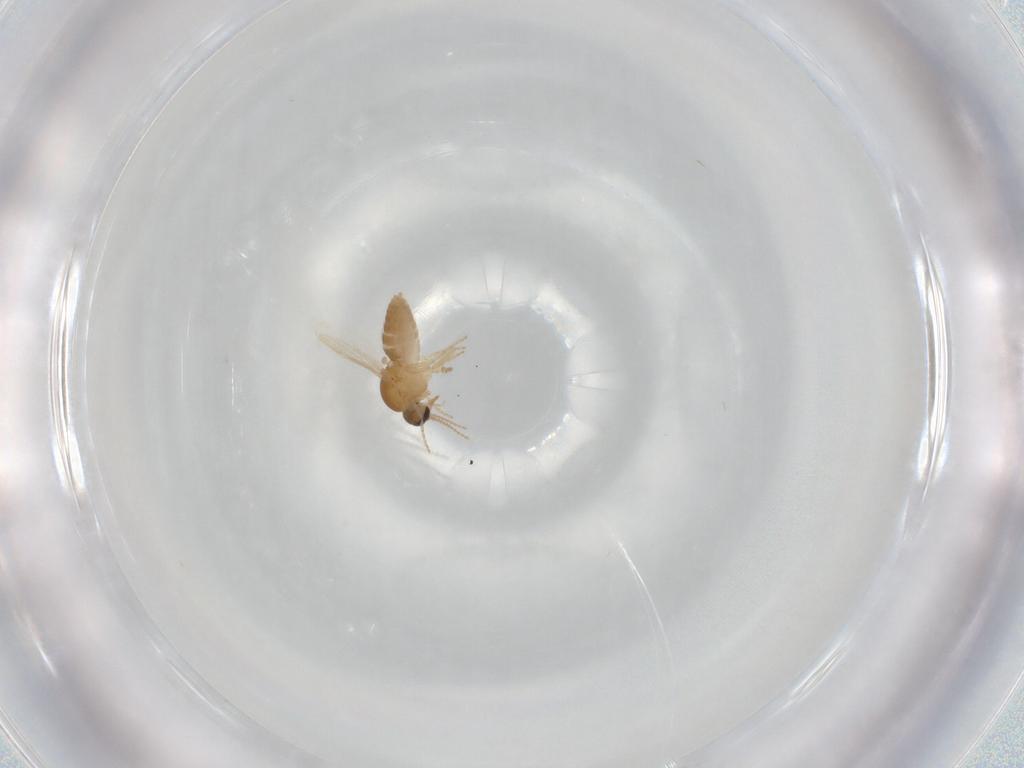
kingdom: Animalia
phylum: Arthropoda
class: Insecta
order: Diptera
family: Ceratopogonidae
